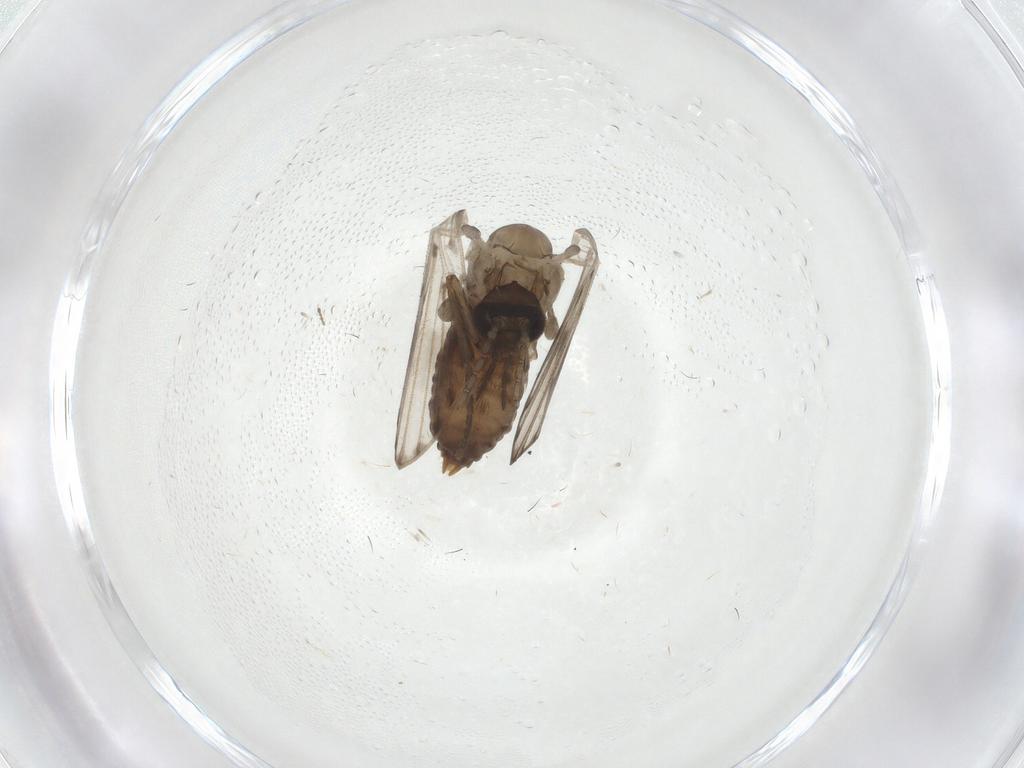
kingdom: Animalia
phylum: Arthropoda
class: Insecta
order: Diptera
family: Psychodidae
